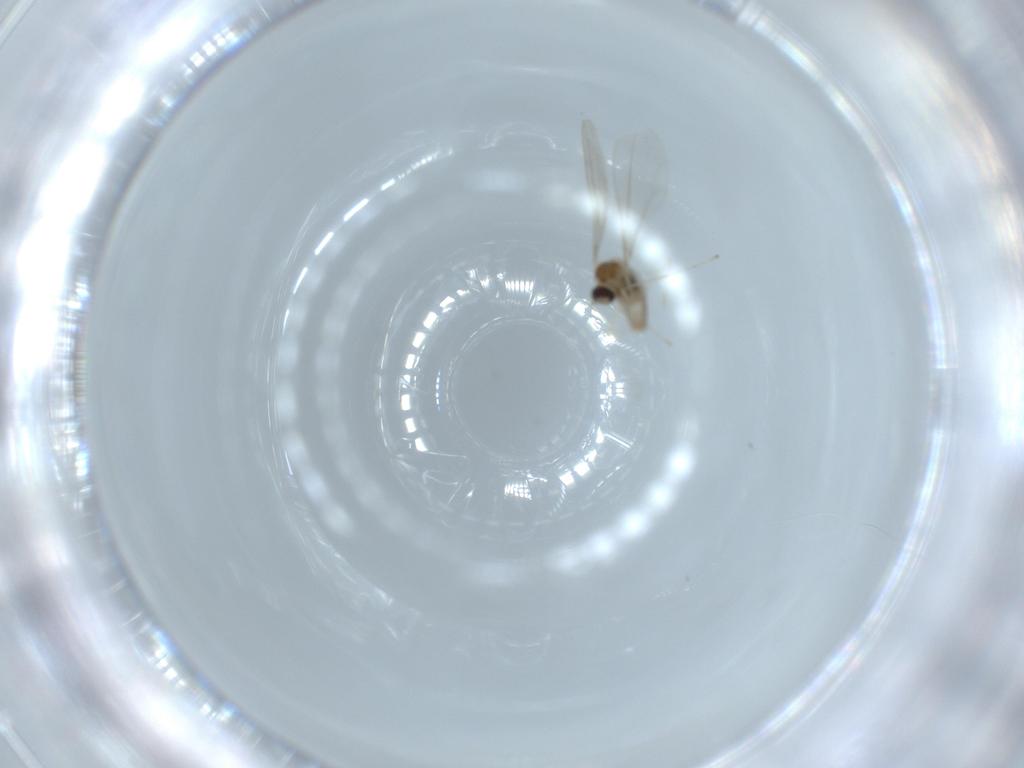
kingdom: Animalia
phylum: Arthropoda
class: Insecta
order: Diptera
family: Cecidomyiidae
